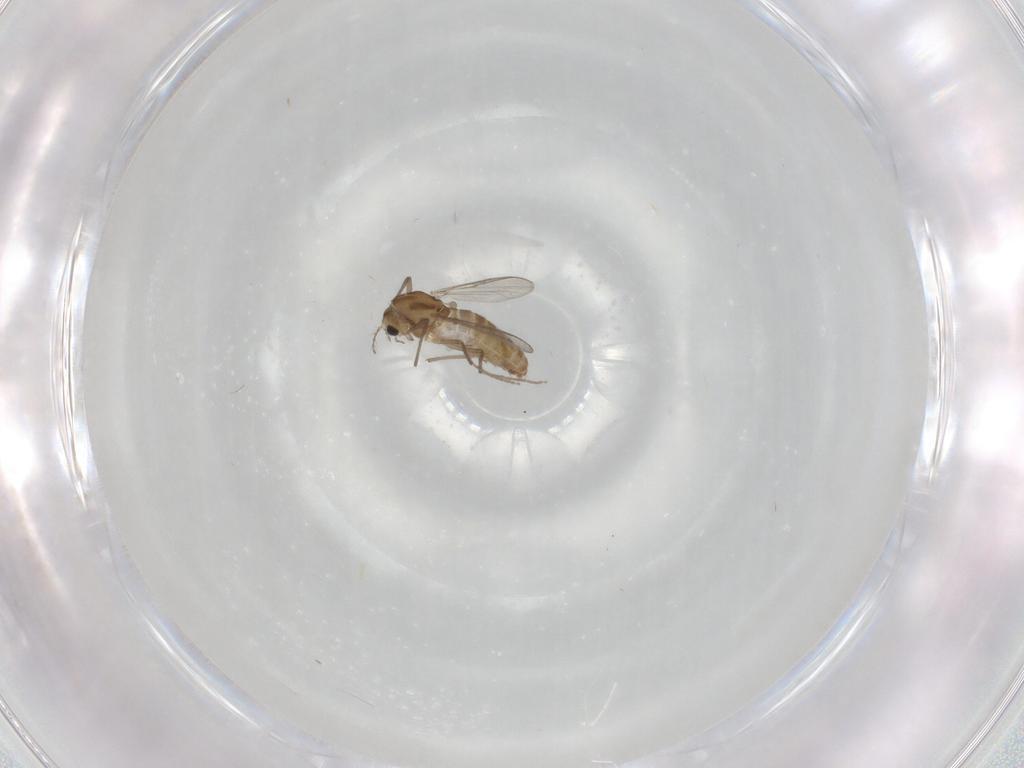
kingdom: Animalia
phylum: Arthropoda
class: Insecta
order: Diptera
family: Chironomidae
